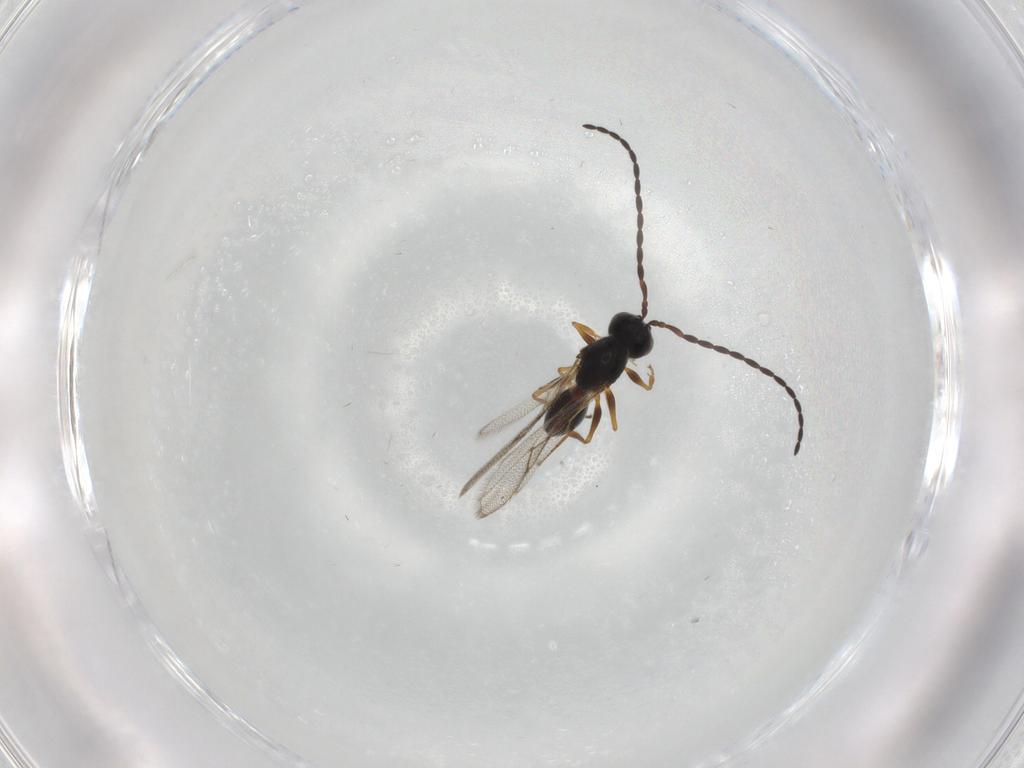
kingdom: Animalia
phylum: Arthropoda
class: Insecta
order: Hymenoptera
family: Figitidae
